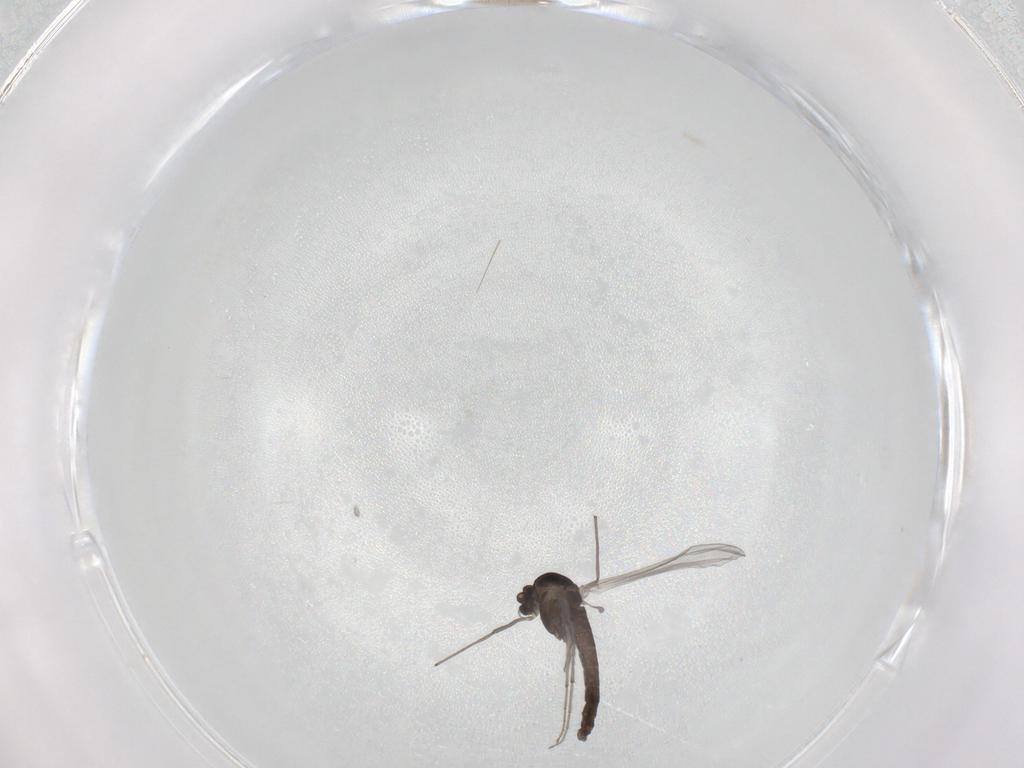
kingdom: Animalia
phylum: Arthropoda
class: Insecta
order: Diptera
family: Chironomidae
